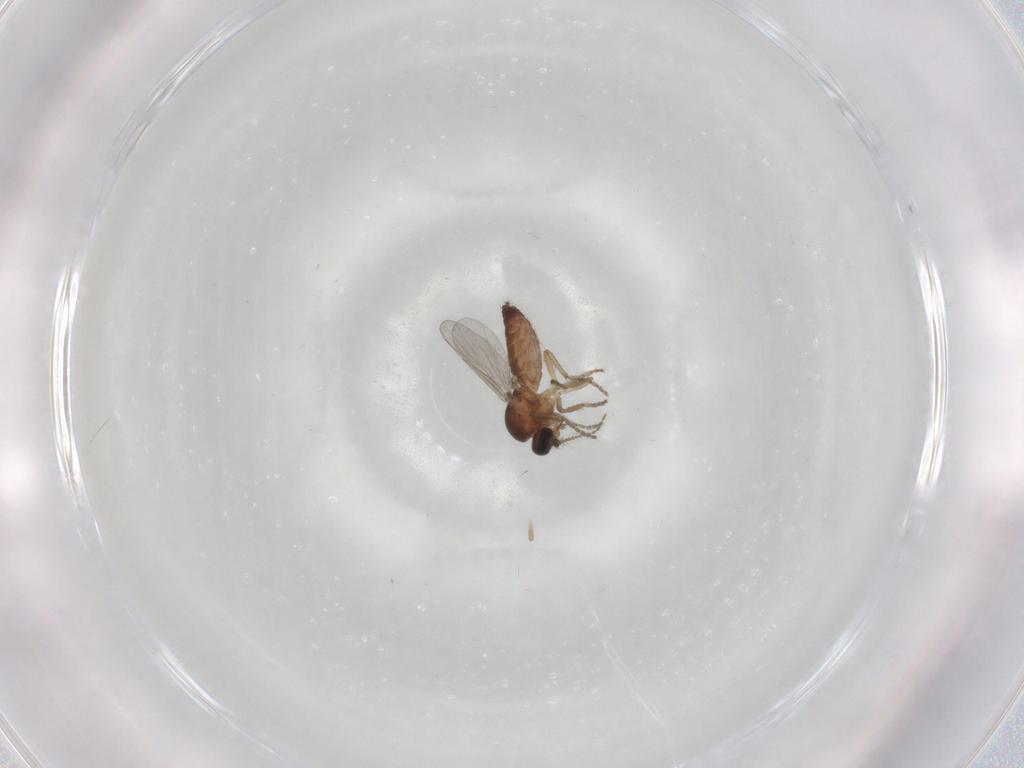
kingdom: Animalia
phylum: Arthropoda
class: Insecta
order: Diptera
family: Ceratopogonidae
